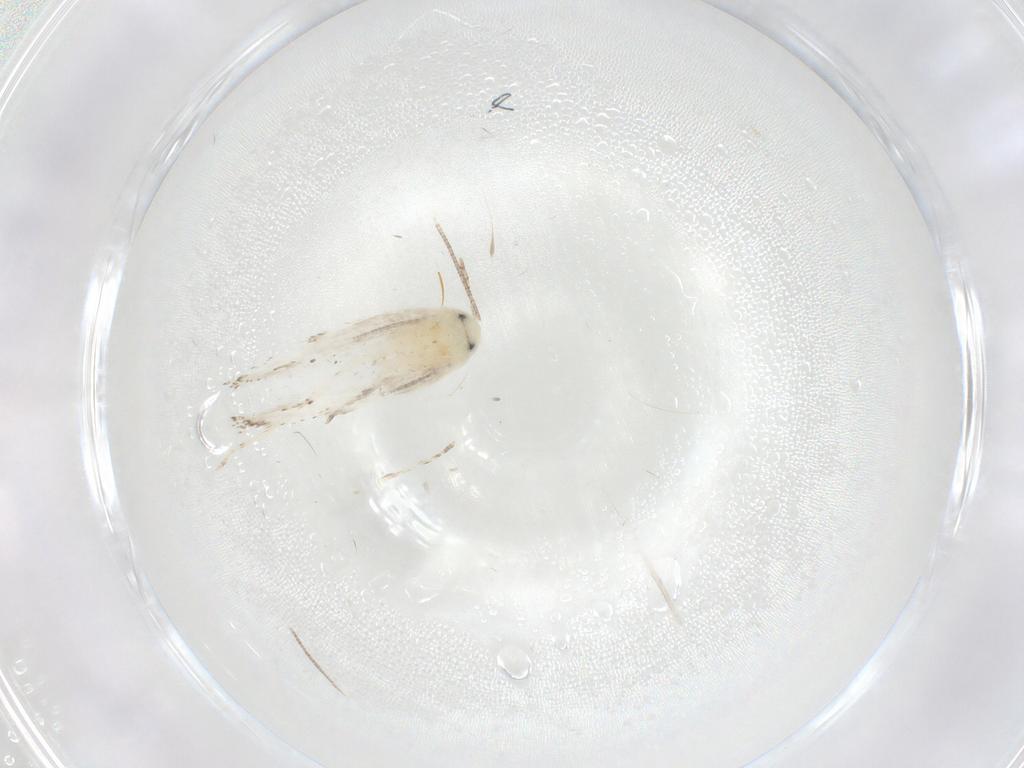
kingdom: Animalia
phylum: Arthropoda
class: Insecta
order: Lepidoptera
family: Lyonetiidae
